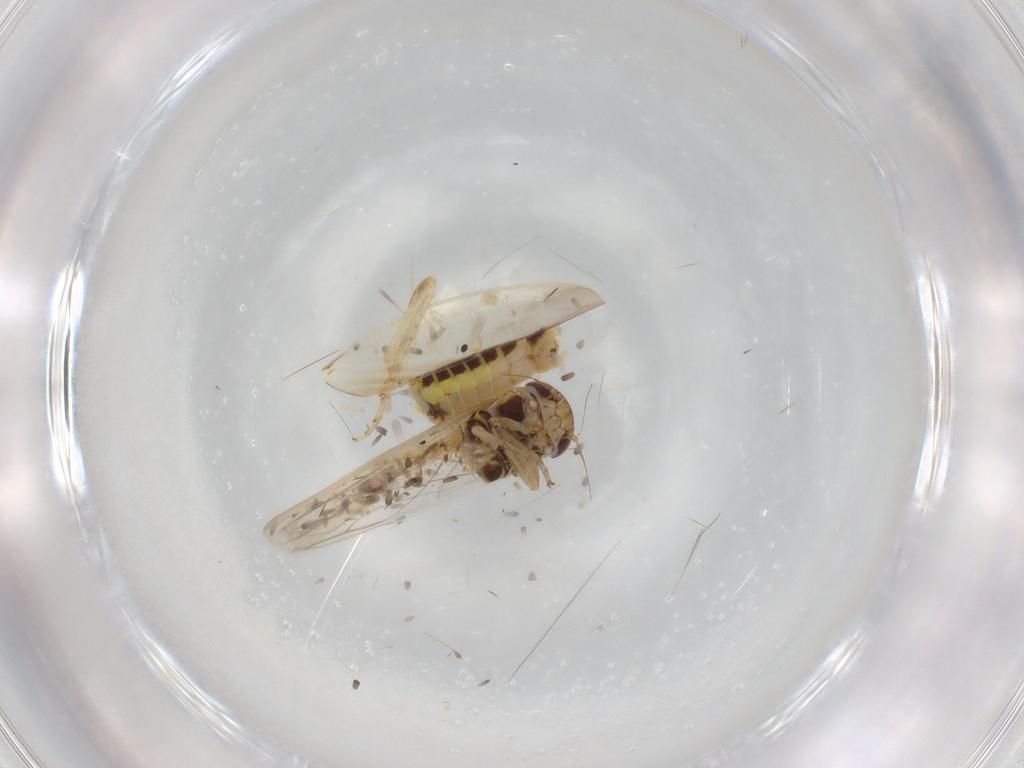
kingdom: Animalia
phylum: Arthropoda
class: Insecta
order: Hemiptera
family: Cicadellidae
